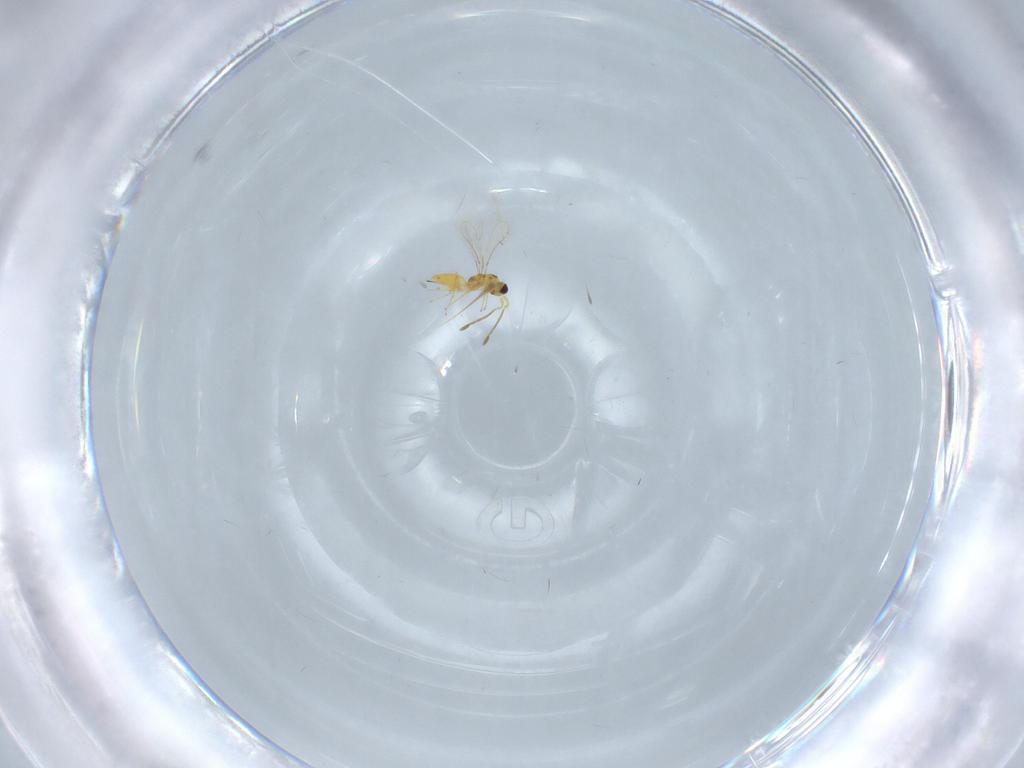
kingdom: Animalia
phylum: Arthropoda
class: Insecta
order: Hymenoptera
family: Mymaridae
